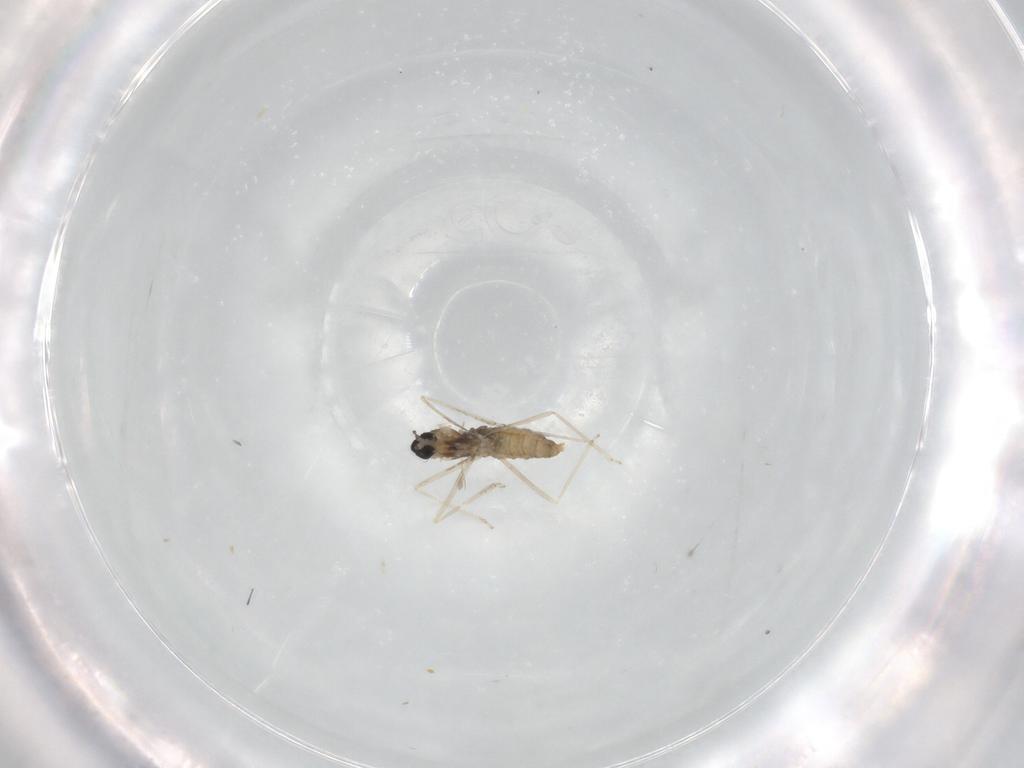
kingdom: Animalia
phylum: Arthropoda
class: Insecta
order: Diptera
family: Cecidomyiidae
